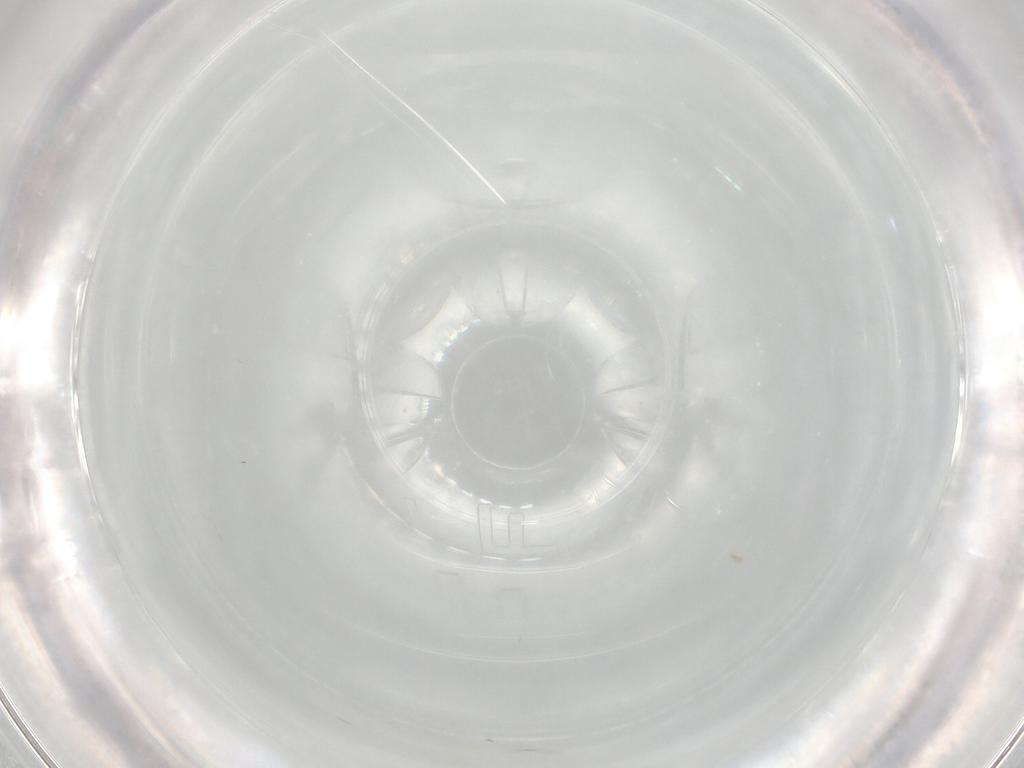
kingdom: Animalia
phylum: Arthropoda
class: Insecta
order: Diptera
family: Cecidomyiidae
